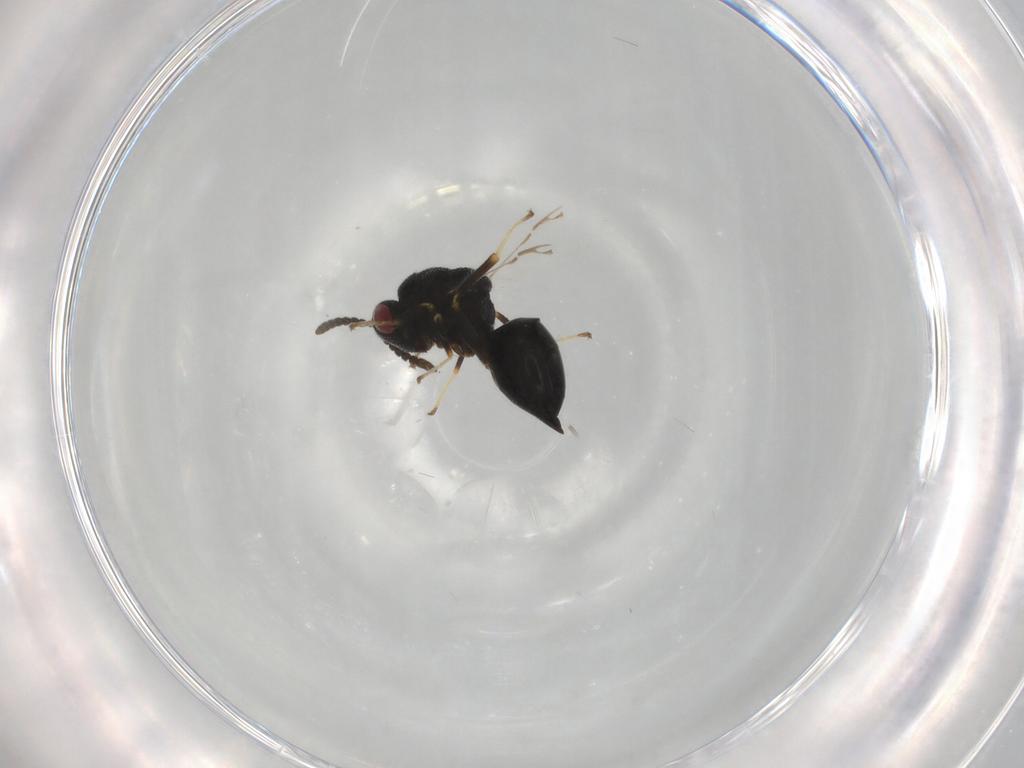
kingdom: Animalia
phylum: Arthropoda
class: Insecta
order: Hymenoptera
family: Eurytomidae
